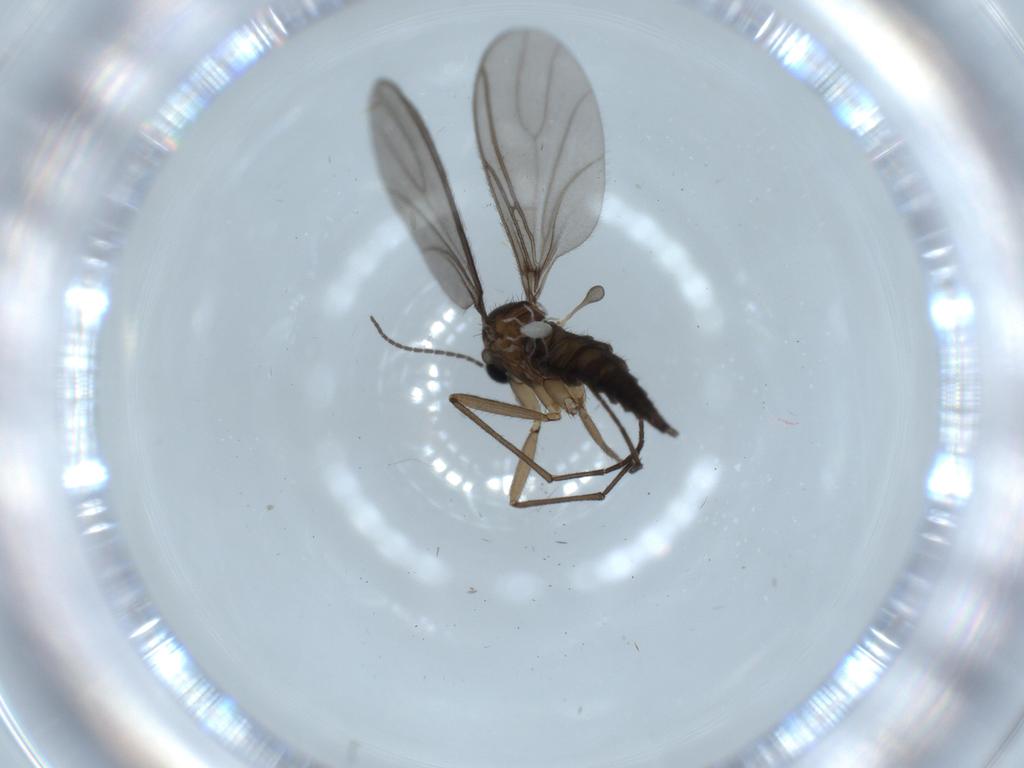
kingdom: Animalia
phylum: Arthropoda
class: Insecta
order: Diptera
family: Sciaridae
